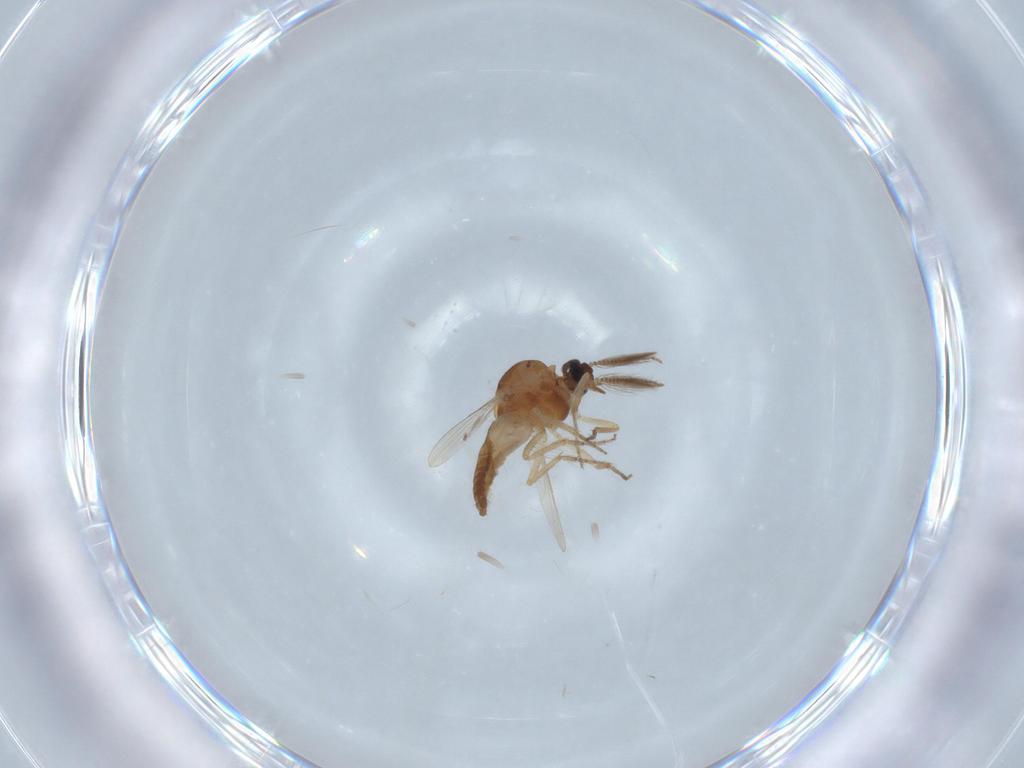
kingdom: Animalia
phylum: Arthropoda
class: Insecta
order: Diptera
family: Ceratopogonidae
